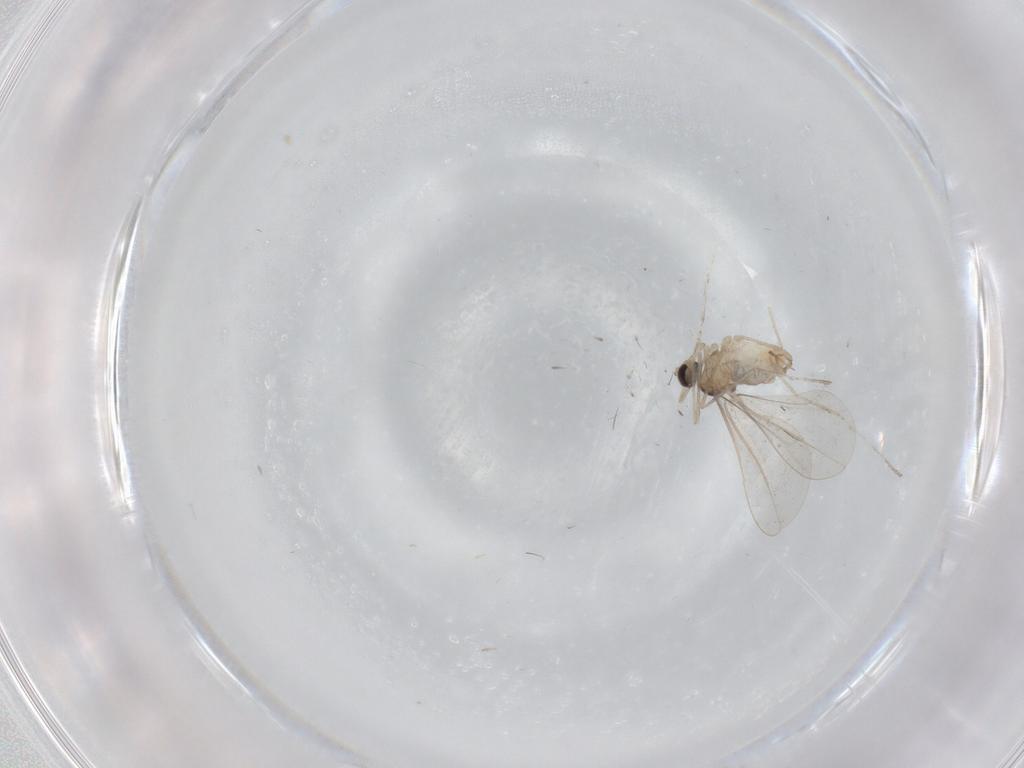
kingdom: Animalia
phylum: Arthropoda
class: Insecta
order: Diptera
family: Cecidomyiidae
